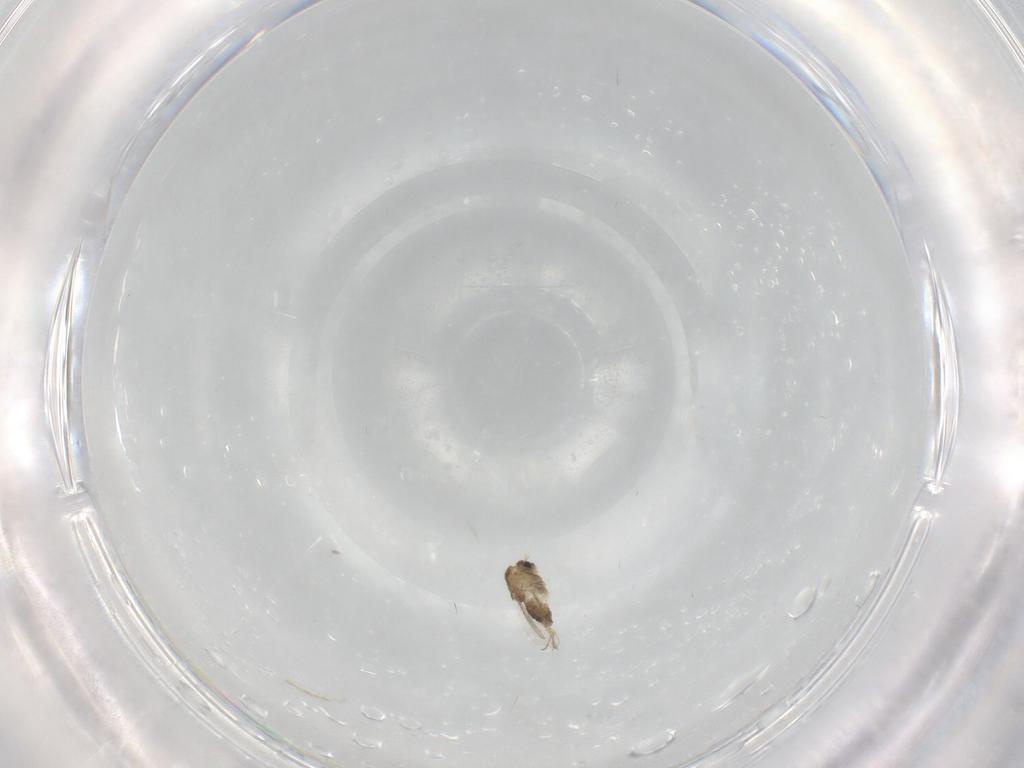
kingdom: Animalia
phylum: Arthropoda
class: Insecta
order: Diptera
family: Chironomidae
